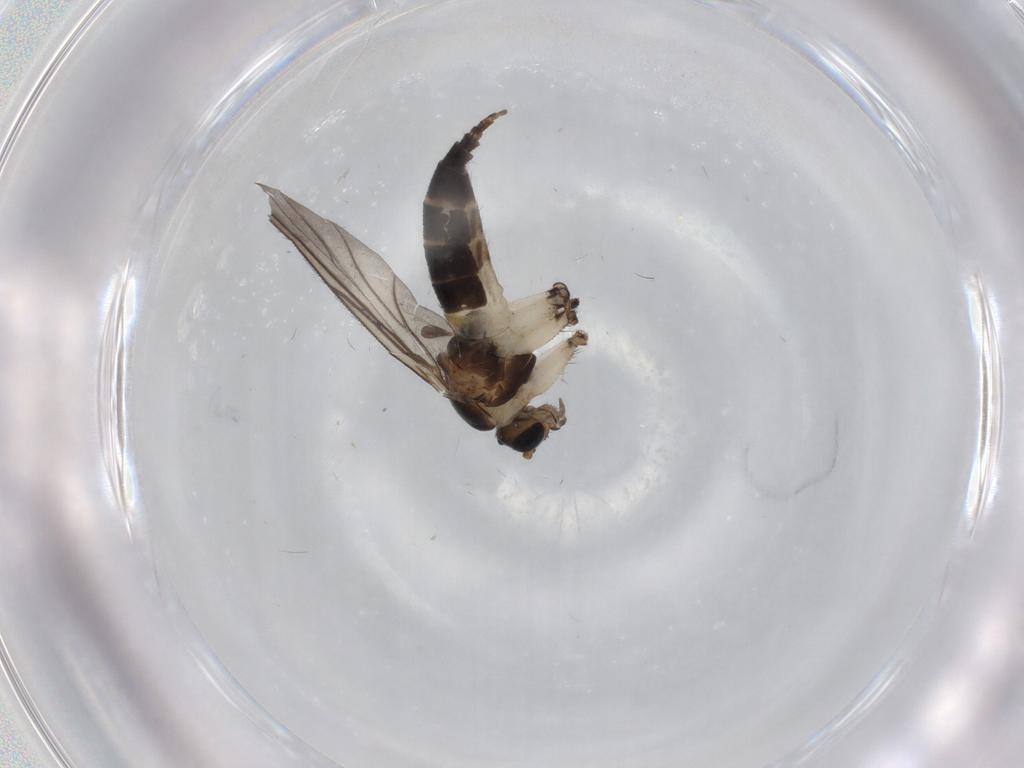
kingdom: Animalia
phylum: Arthropoda
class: Insecta
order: Diptera
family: Sciaridae
